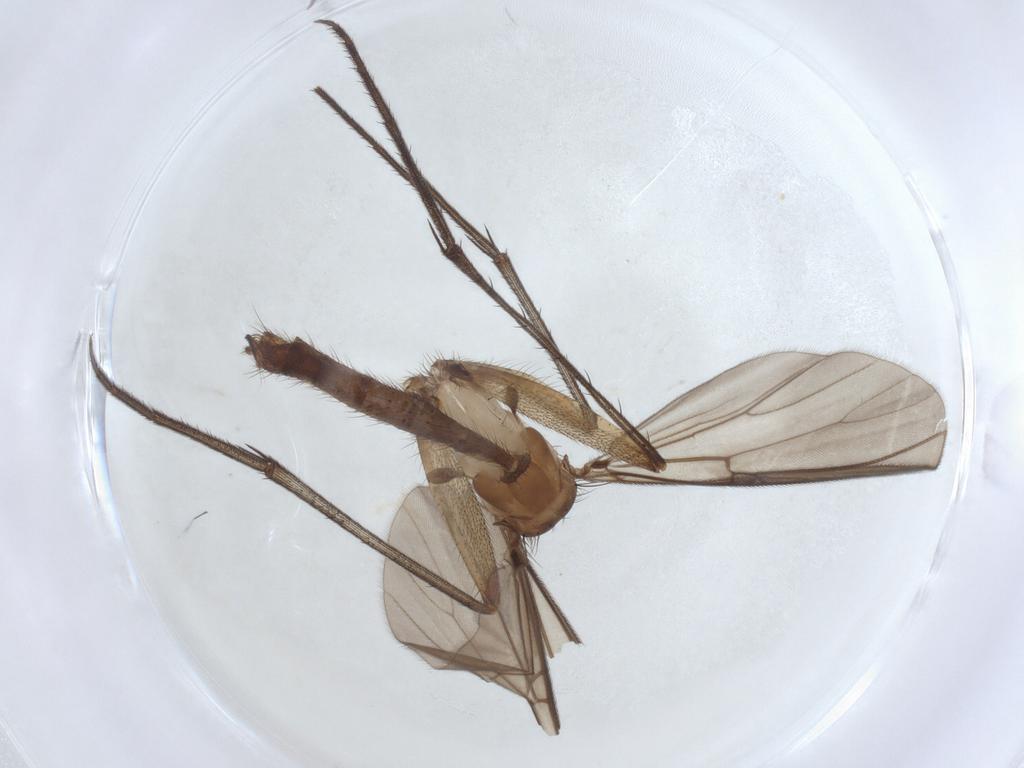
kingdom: Animalia
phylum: Arthropoda
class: Insecta
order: Diptera
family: Mycetophilidae
